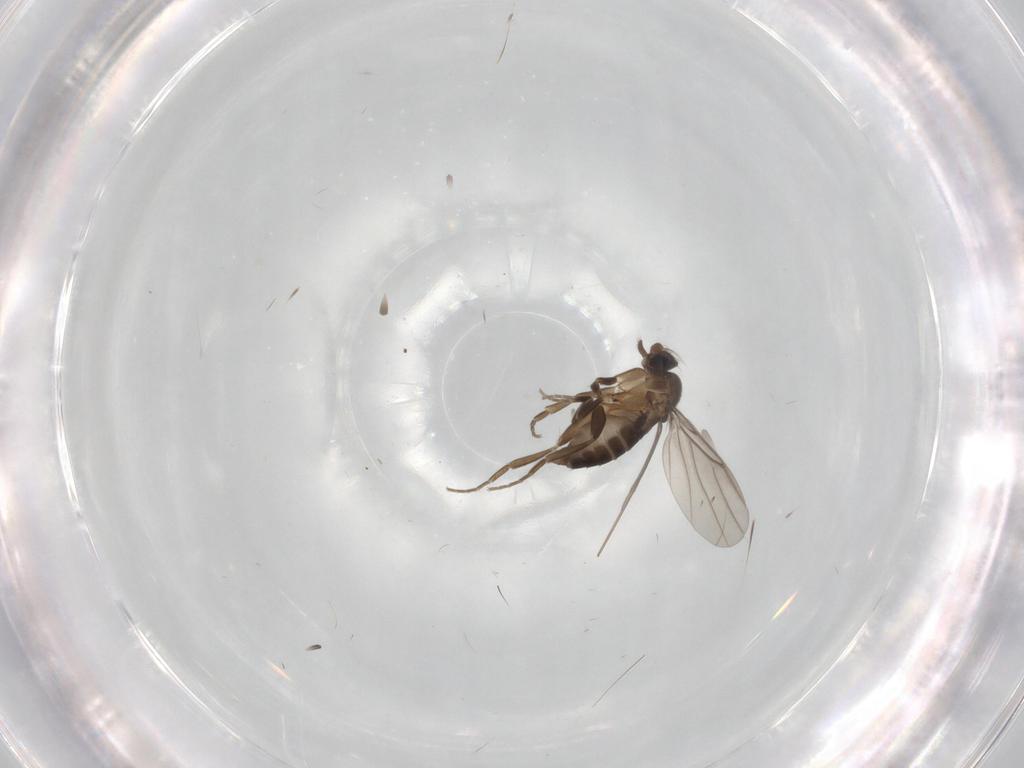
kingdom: Animalia
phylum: Arthropoda
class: Insecta
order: Diptera
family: Phoridae
